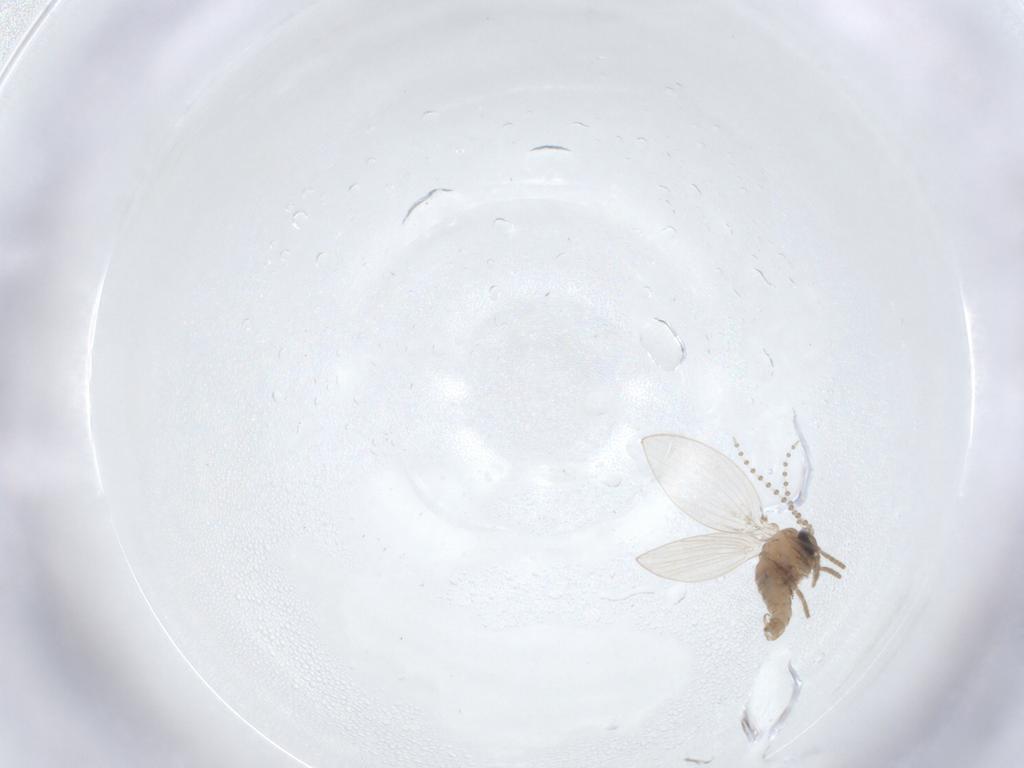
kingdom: Animalia
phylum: Arthropoda
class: Insecta
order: Diptera
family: Psychodidae
